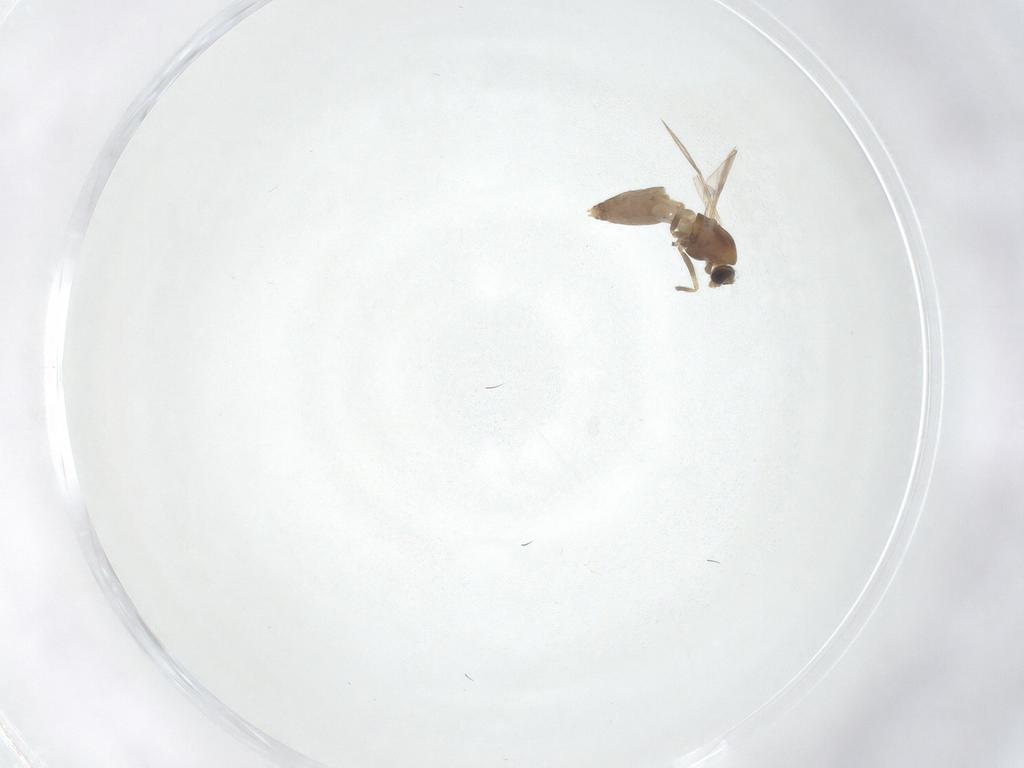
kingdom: Animalia
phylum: Arthropoda
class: Insecta
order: Diptera
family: Chironomidae
